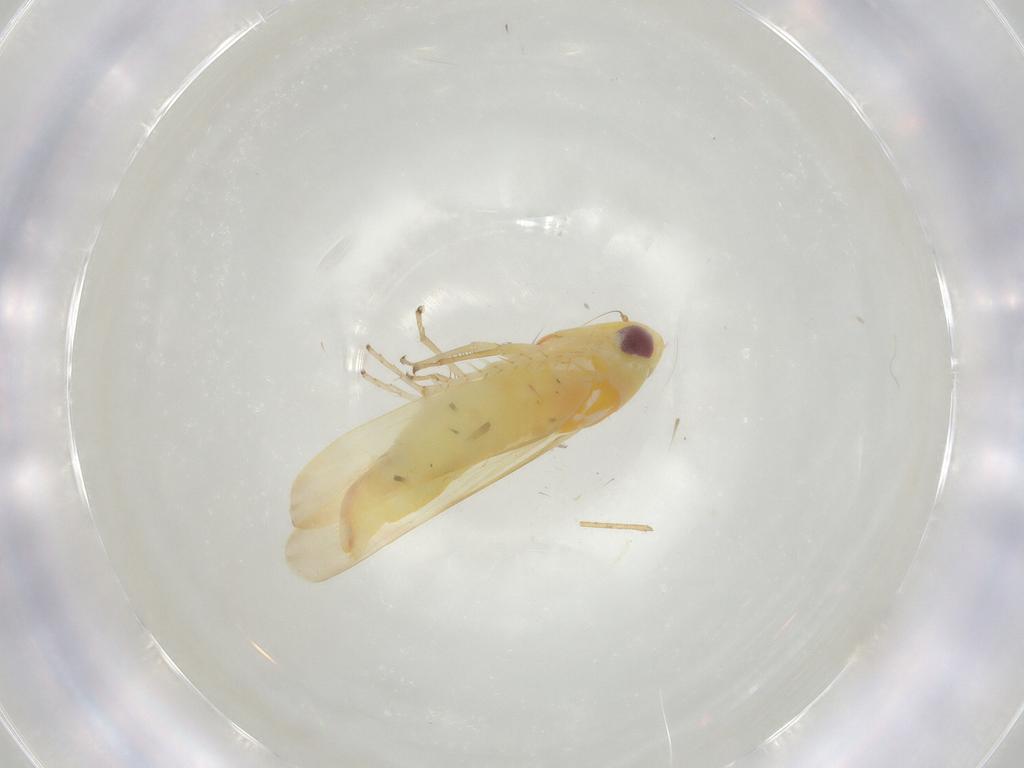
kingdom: Animalia
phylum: Arthropoda
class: Insecta
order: Hemiptera
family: Cicadellidae
